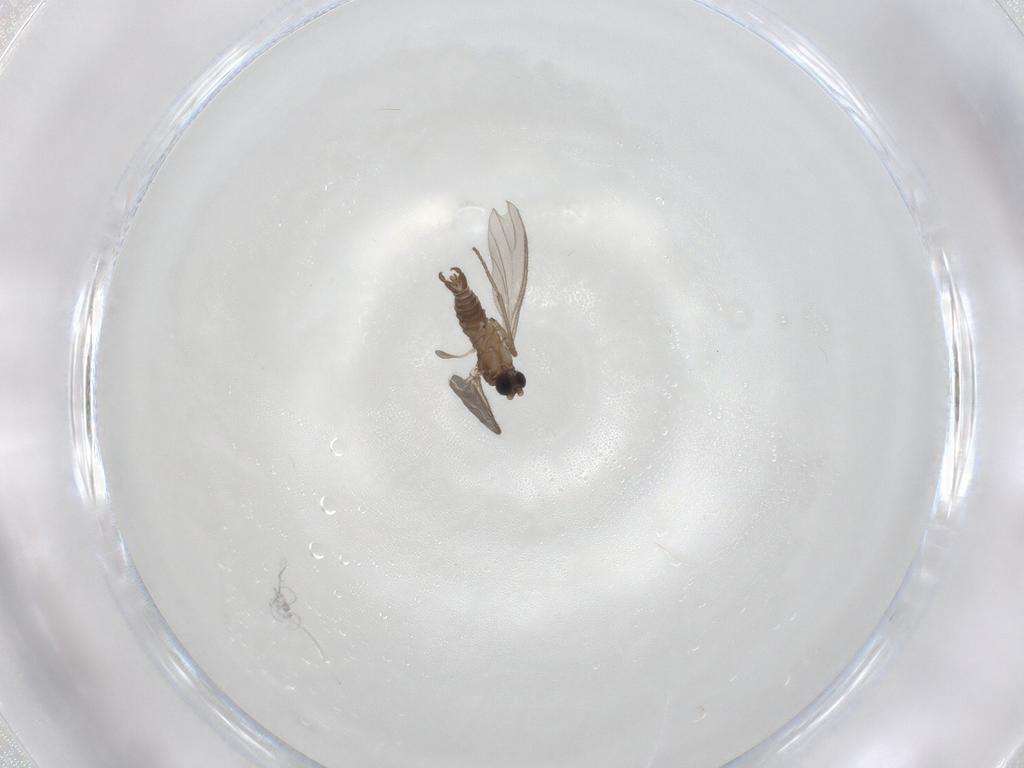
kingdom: Animalia
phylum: Arthropoda
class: Insecta
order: Diptera
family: Sciaridae
